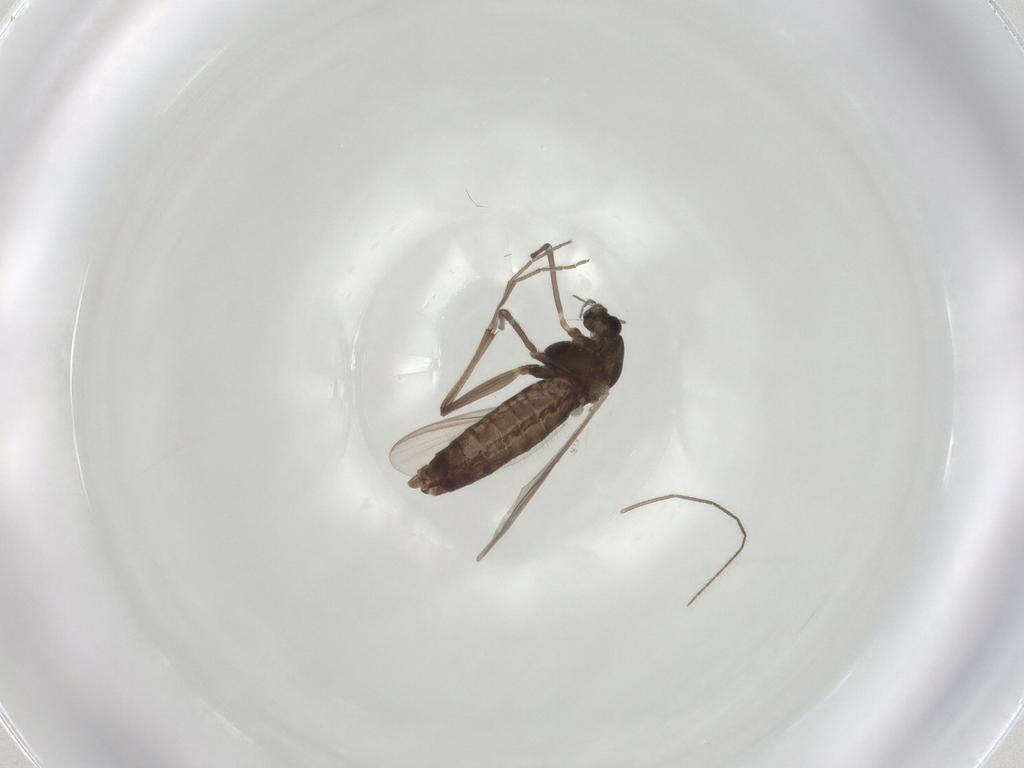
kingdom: Animalia
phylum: Arthropoda
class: Insecta
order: Diptera
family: Chironomidae
